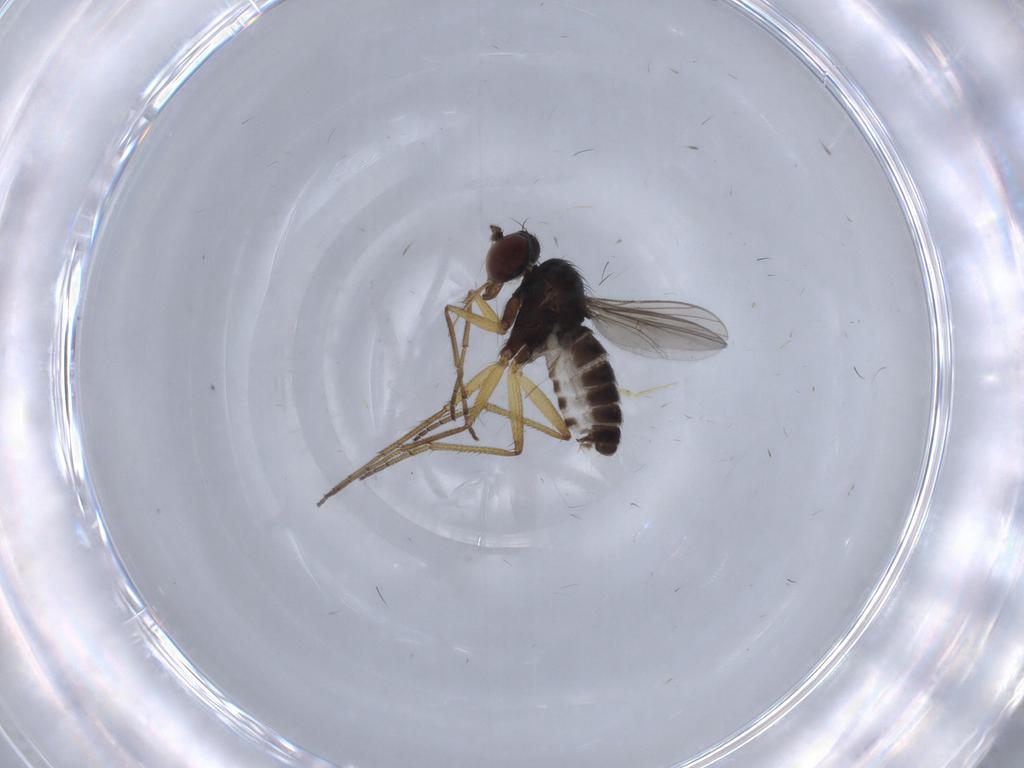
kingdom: Animalia
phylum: Arthropoda
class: Insecta
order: Diptera
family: Dolichopodidae
